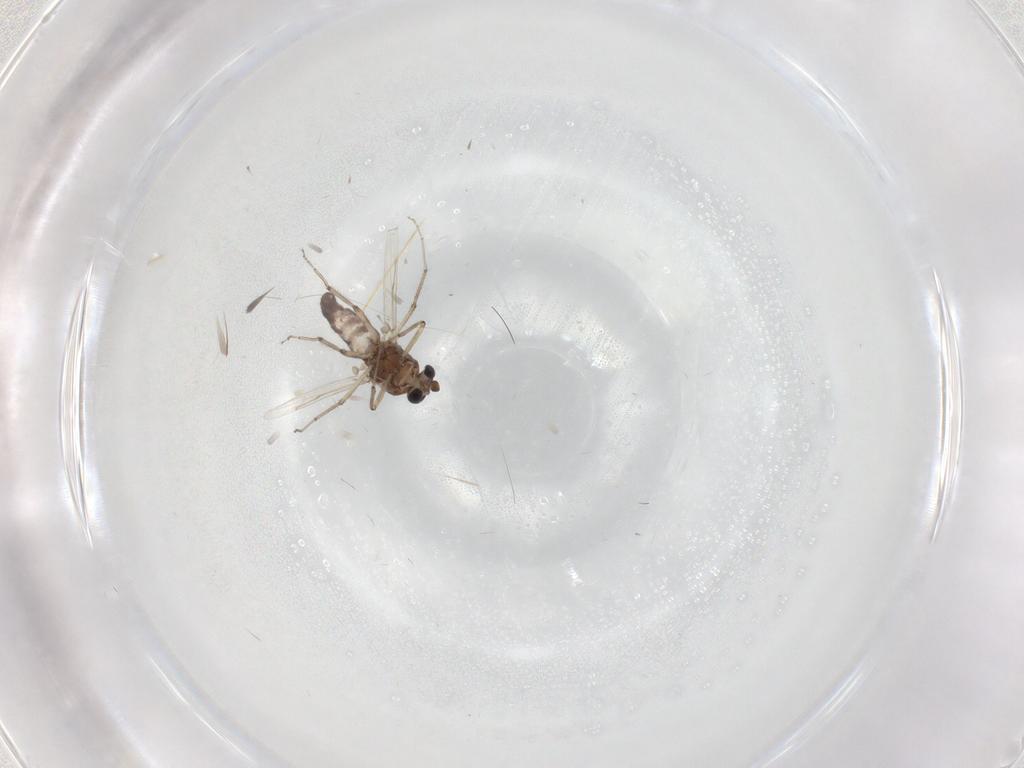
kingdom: Animalia
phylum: Arthropoda
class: Insecta
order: Diptera
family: Ceratopogonidae
